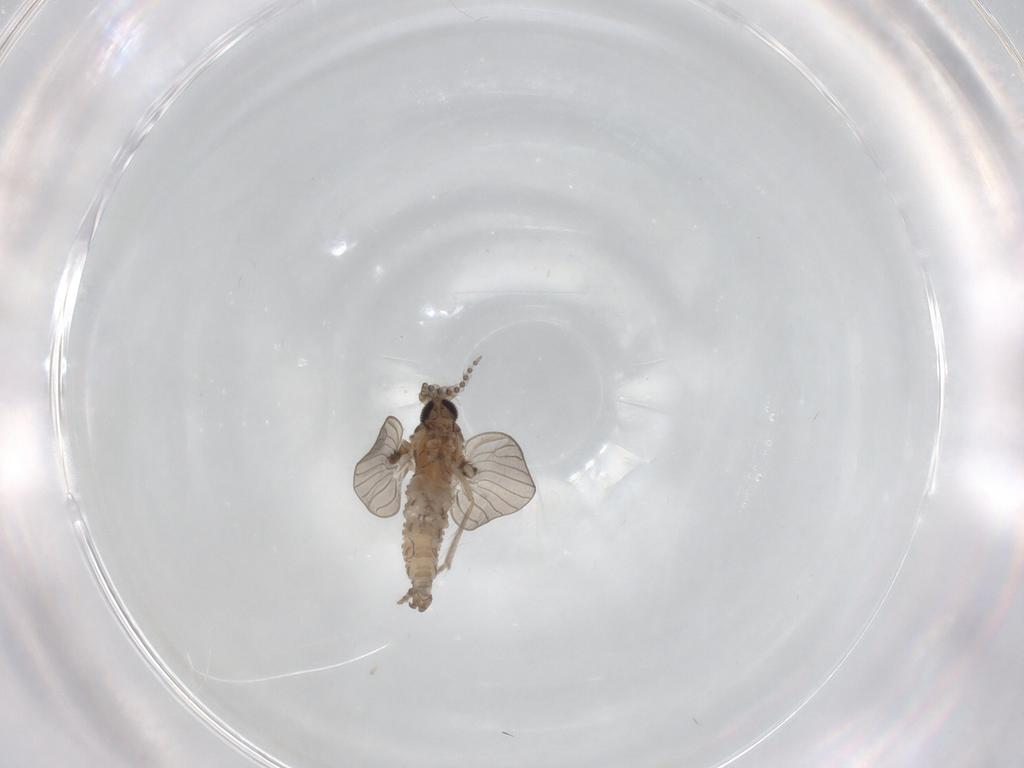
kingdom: Animalia
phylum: Arthropoda
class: Insecta
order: Diptera
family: Psychodidae
